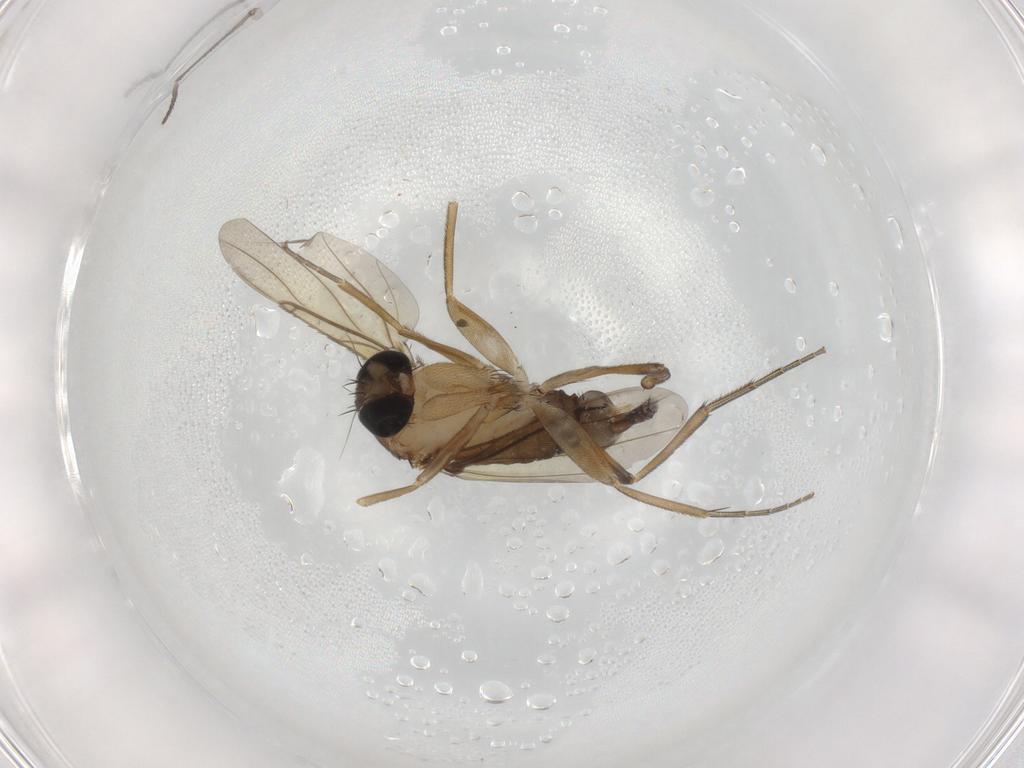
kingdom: Animalia
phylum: Arthropoda
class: Insecta
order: Diptera
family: Phoridae
